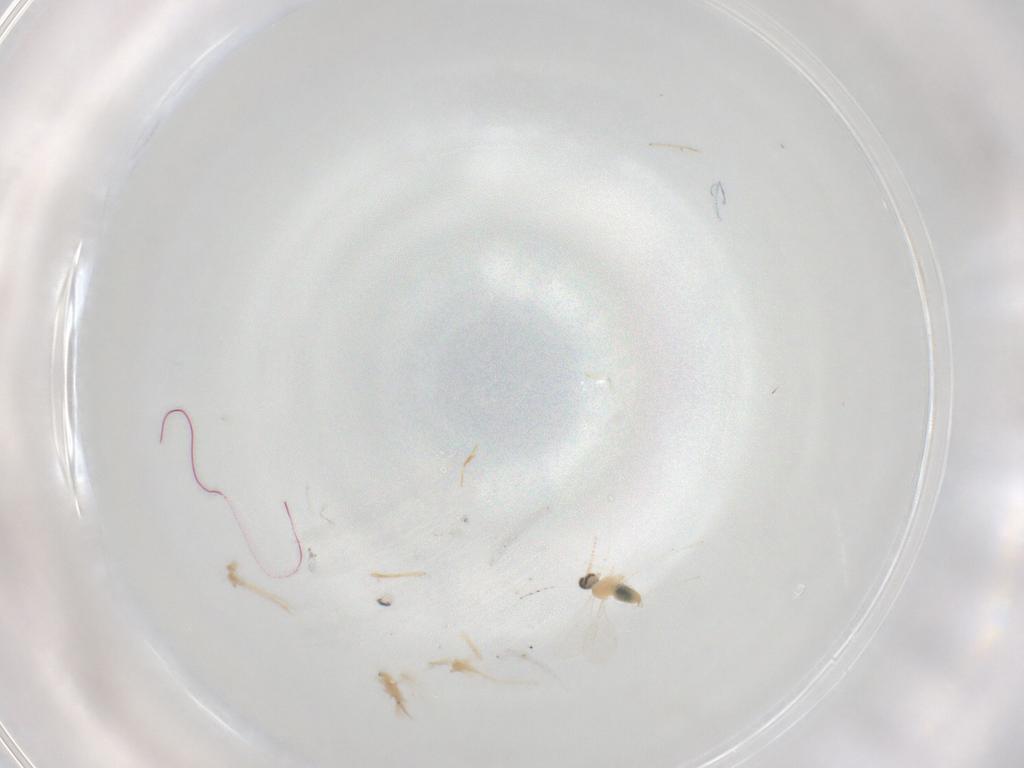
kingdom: Animalia
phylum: Arthropoda
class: Insecta
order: Diptera
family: Cecidomyiidae
